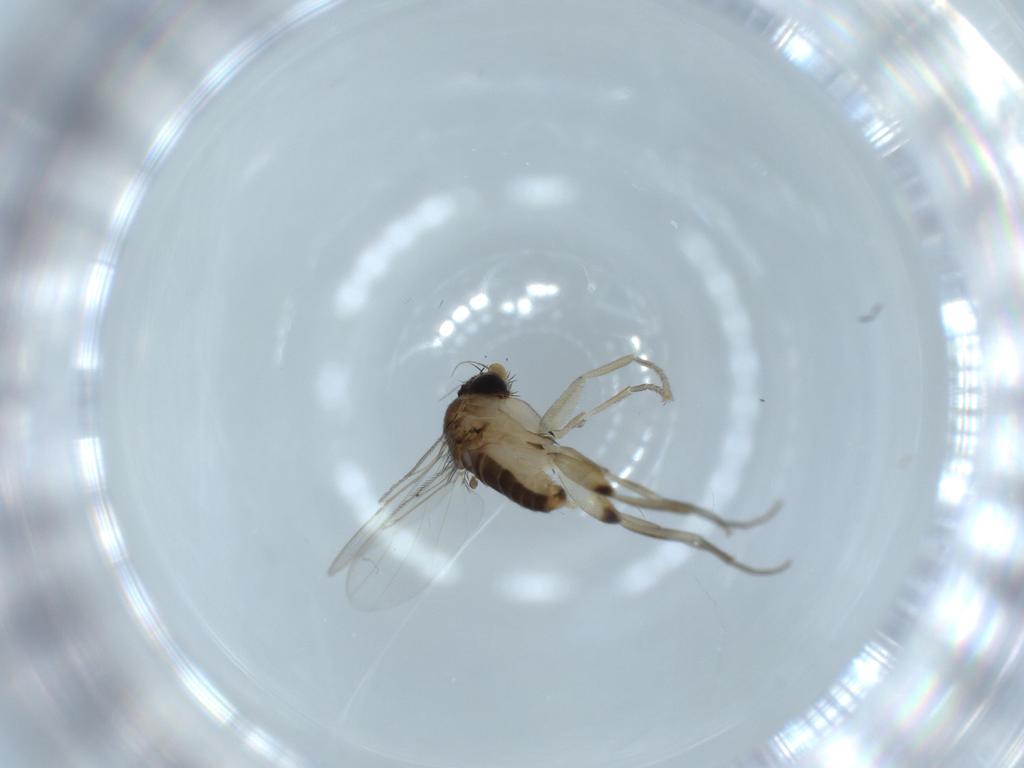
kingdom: Animalia
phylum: Arthropoda
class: Insecta
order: Diptera
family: Phoridae
